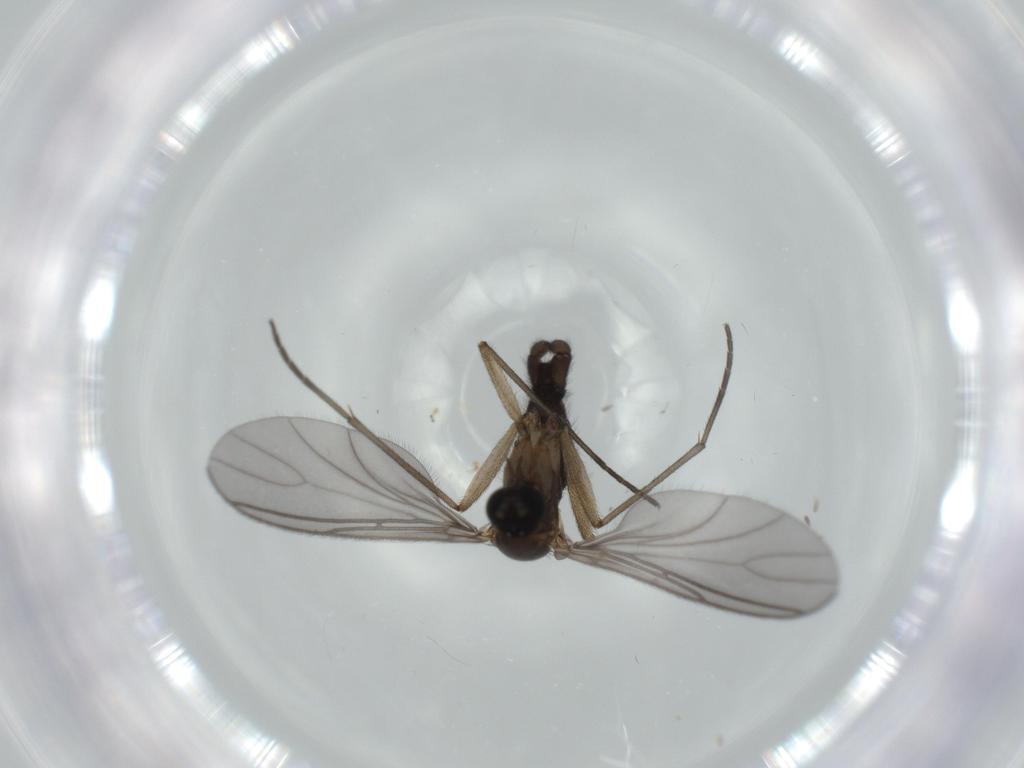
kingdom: Animalia
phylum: Arthropoda
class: Insecta
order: Diptera
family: Sciaridae
